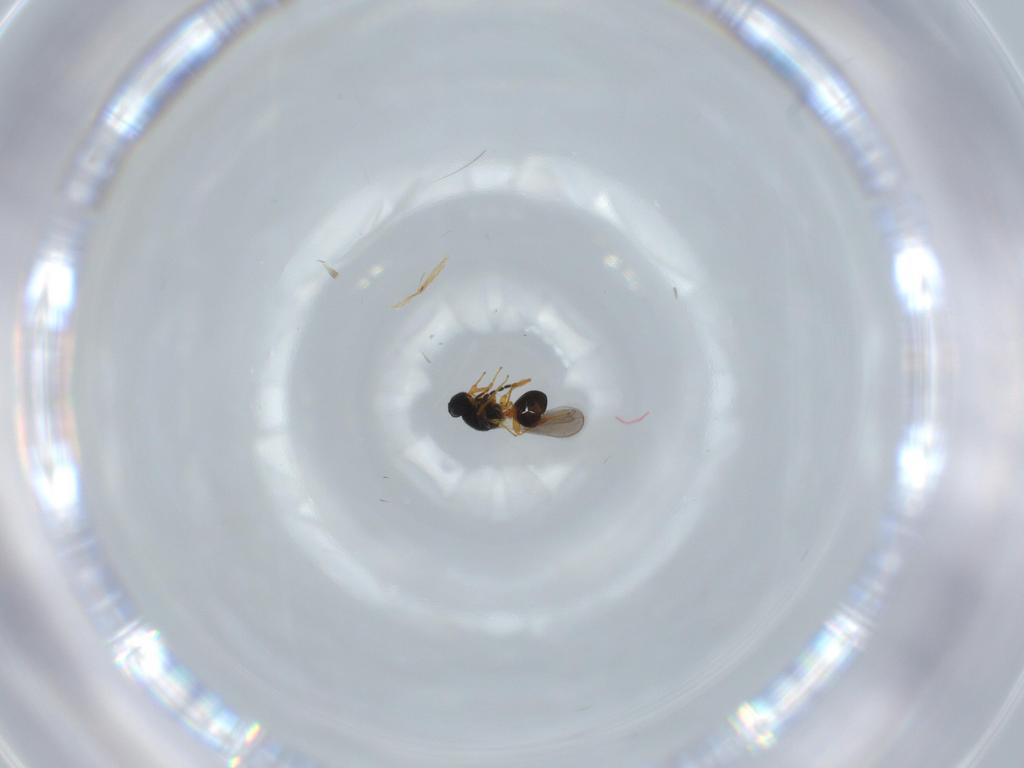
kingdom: Animalia
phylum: Arthropoda
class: Insecta
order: Hymenoptera
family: Platygastridae
